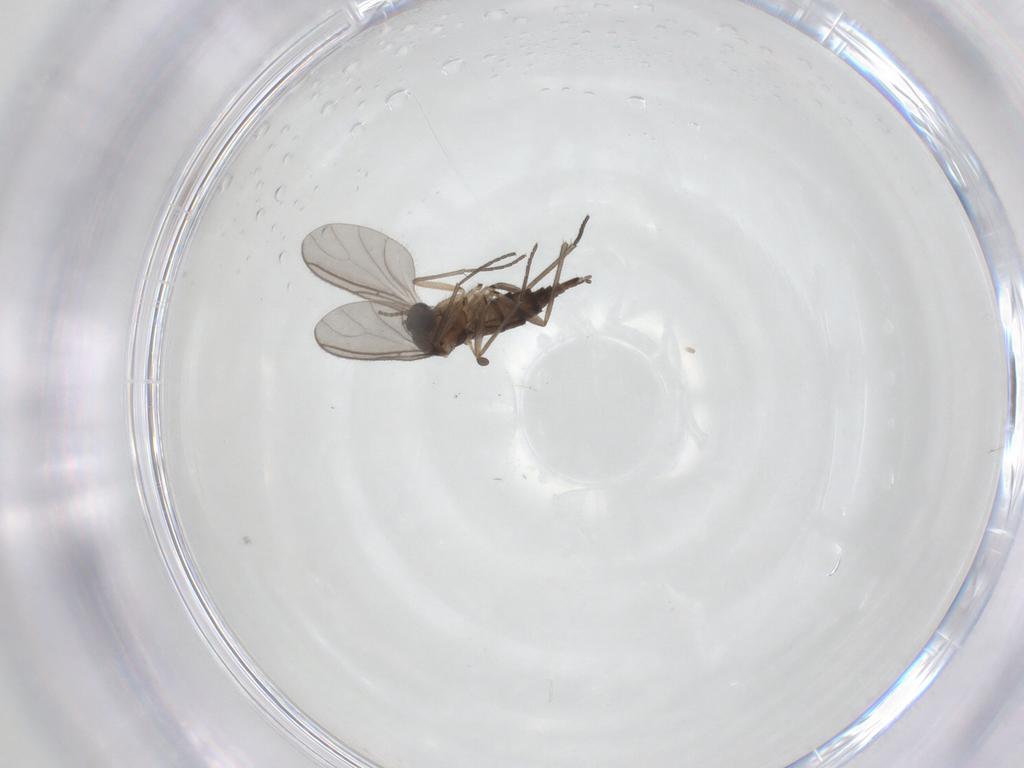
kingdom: Animalia
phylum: Arthropoda
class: Insecta
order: Diptera
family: Sciaridae
